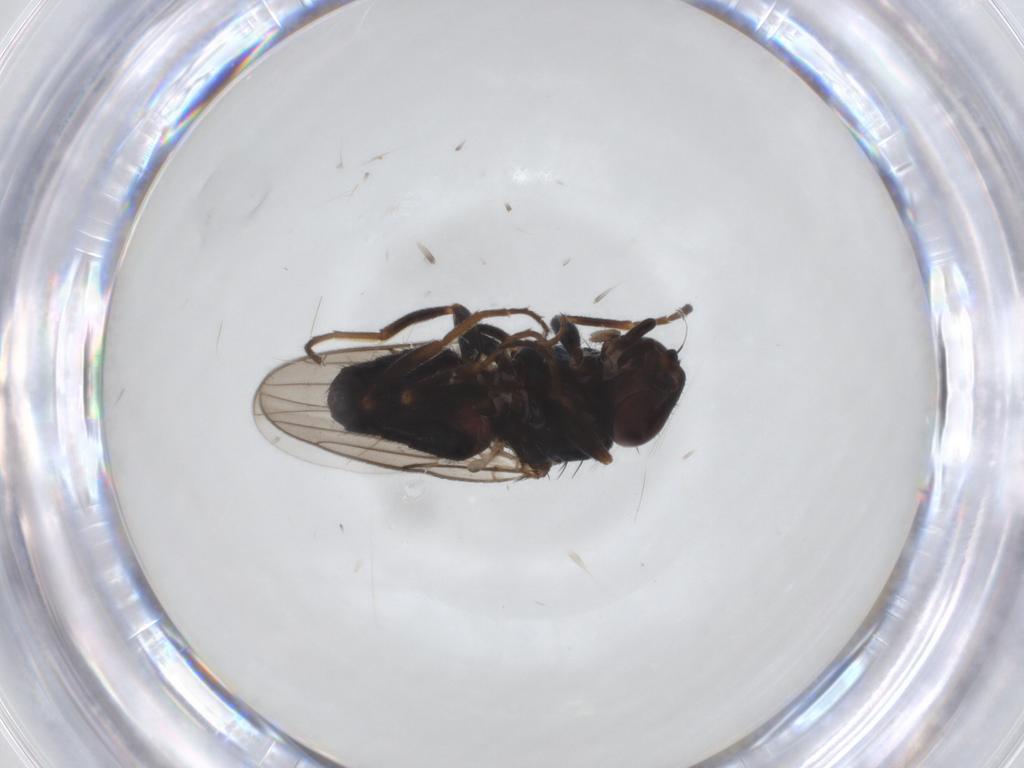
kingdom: Animalia
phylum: Arthropoda
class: Insecta
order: Diptera
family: Chloropidae
